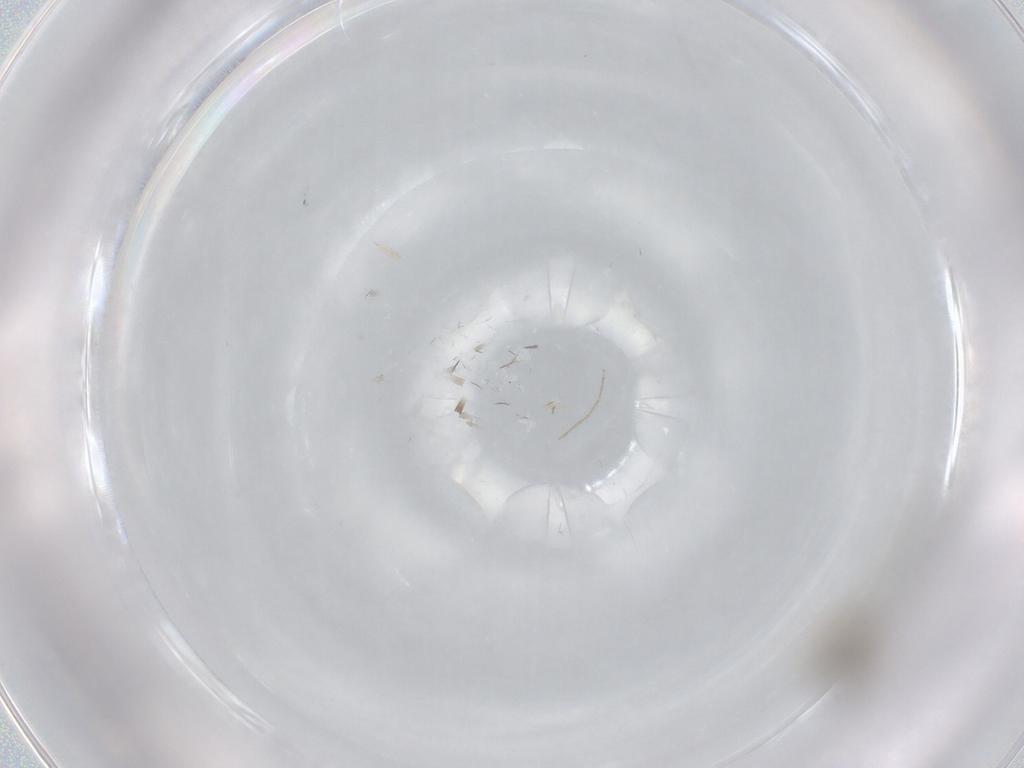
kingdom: Animalia
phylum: Arthropoda
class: Insecta
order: Diptera
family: Cecidomyiidae
